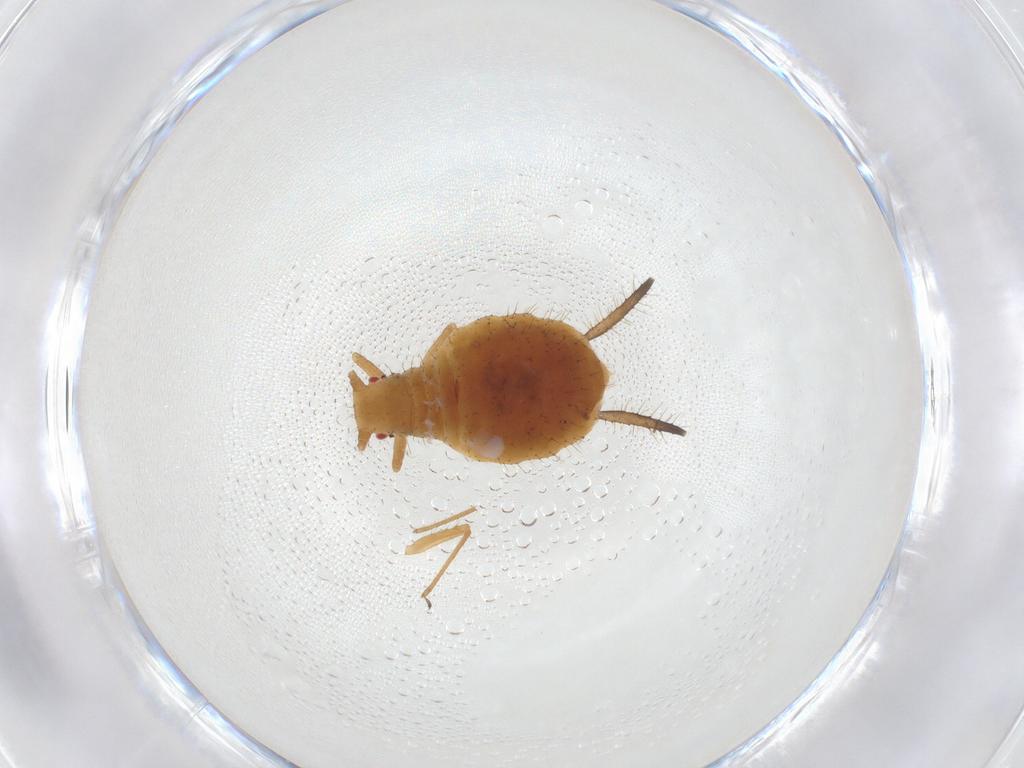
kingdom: Animalia
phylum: Arthropoda
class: Insecta
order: Hemiptera
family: Aphididae
